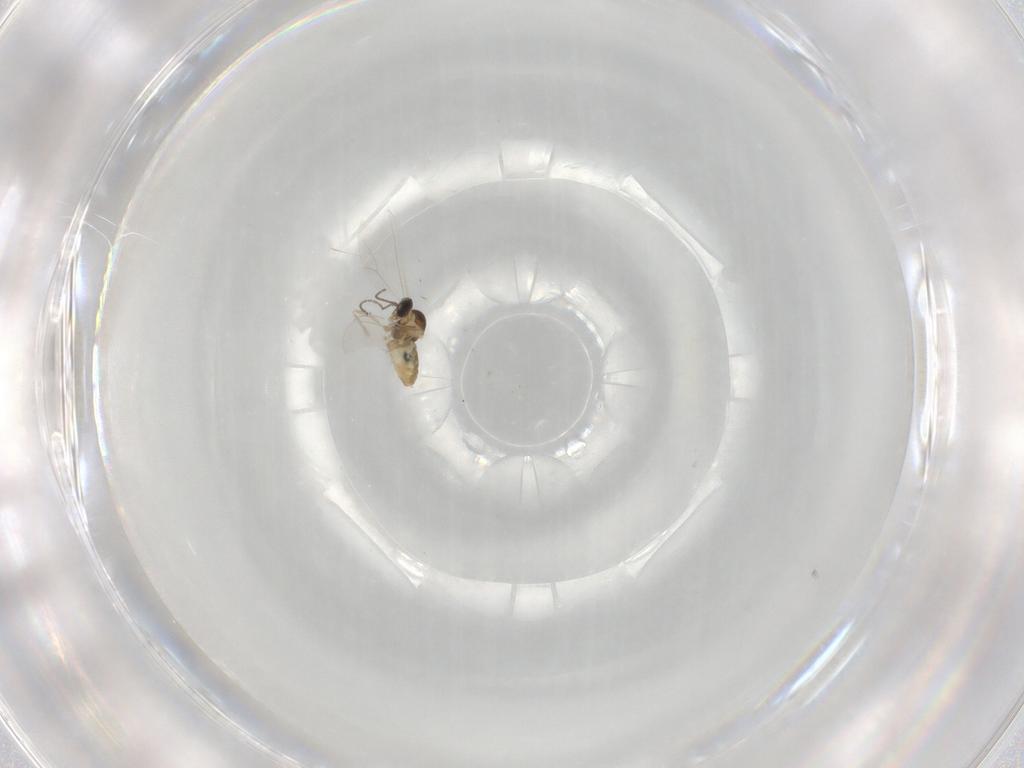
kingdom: Animalia
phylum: Arthropoda
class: Insecta
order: Diptera
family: Cecidomyiidae
